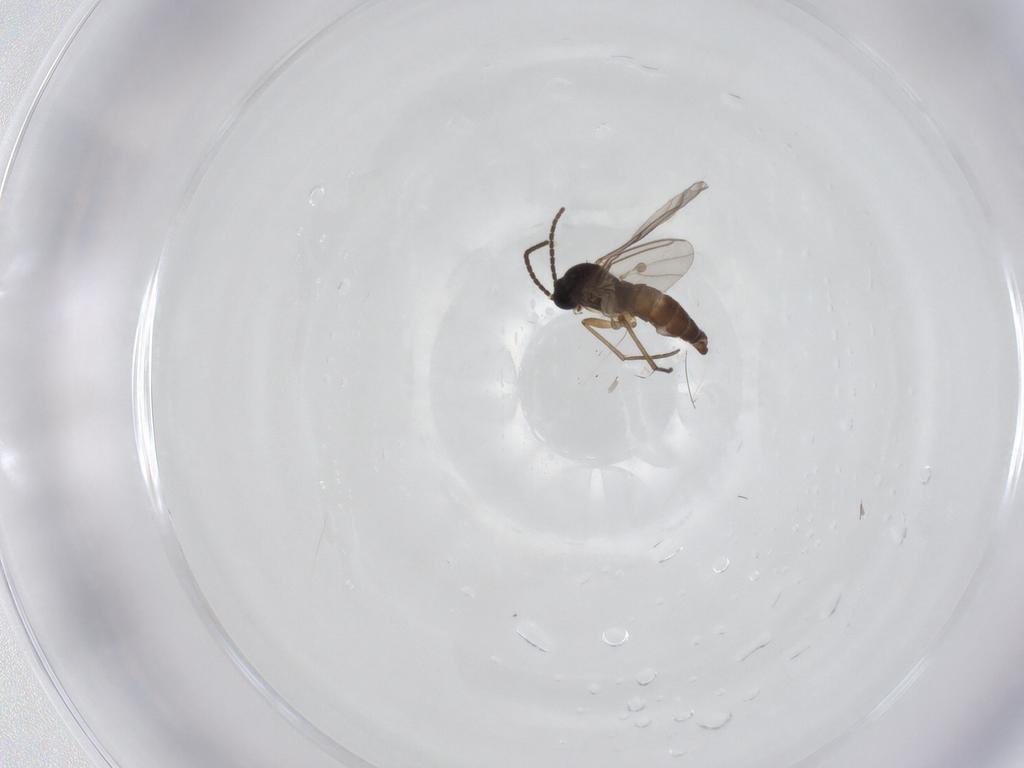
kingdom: Animalia
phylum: Arthropoda
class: Insecta
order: Diptera
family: Sciaridae
